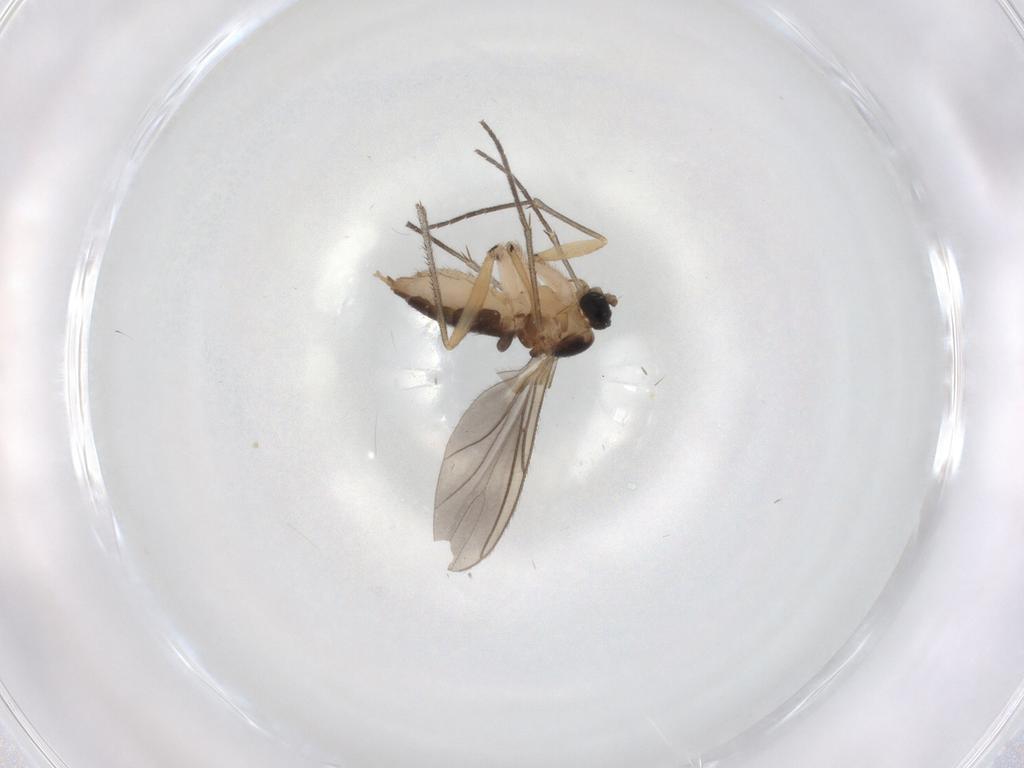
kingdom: Animalia
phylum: Arthropoda
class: Insecta
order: Diptera
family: Sciaridae
